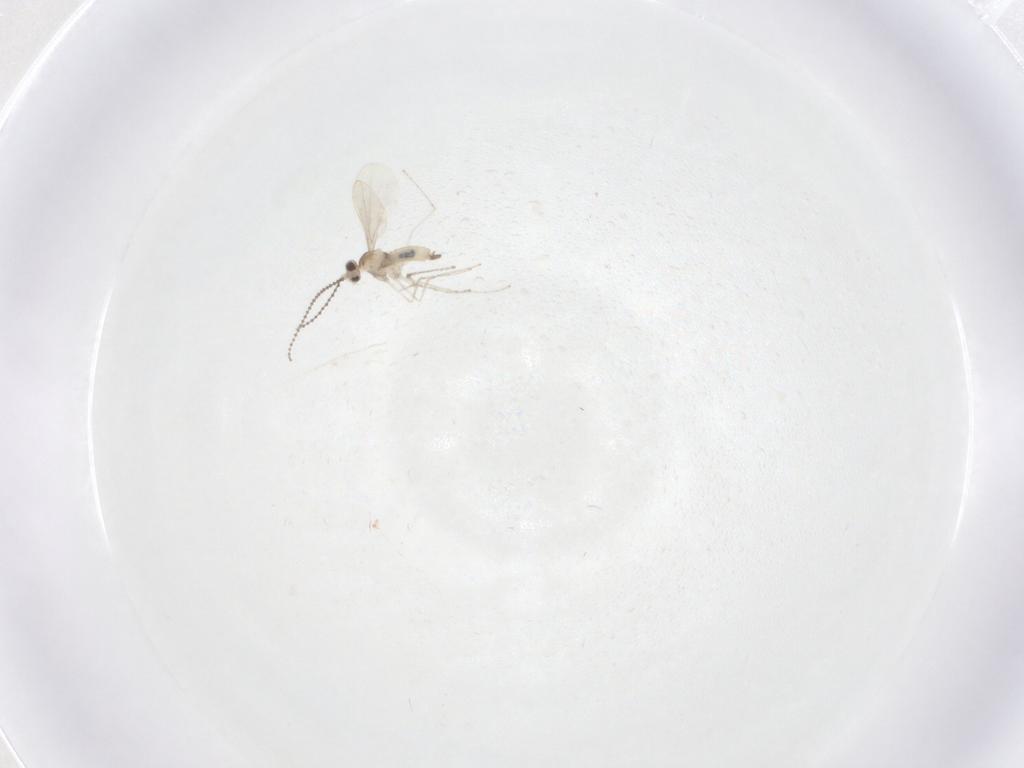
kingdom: Animalia
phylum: Arthropoda
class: Insecta
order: Diptera
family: Cecidomyiidae
